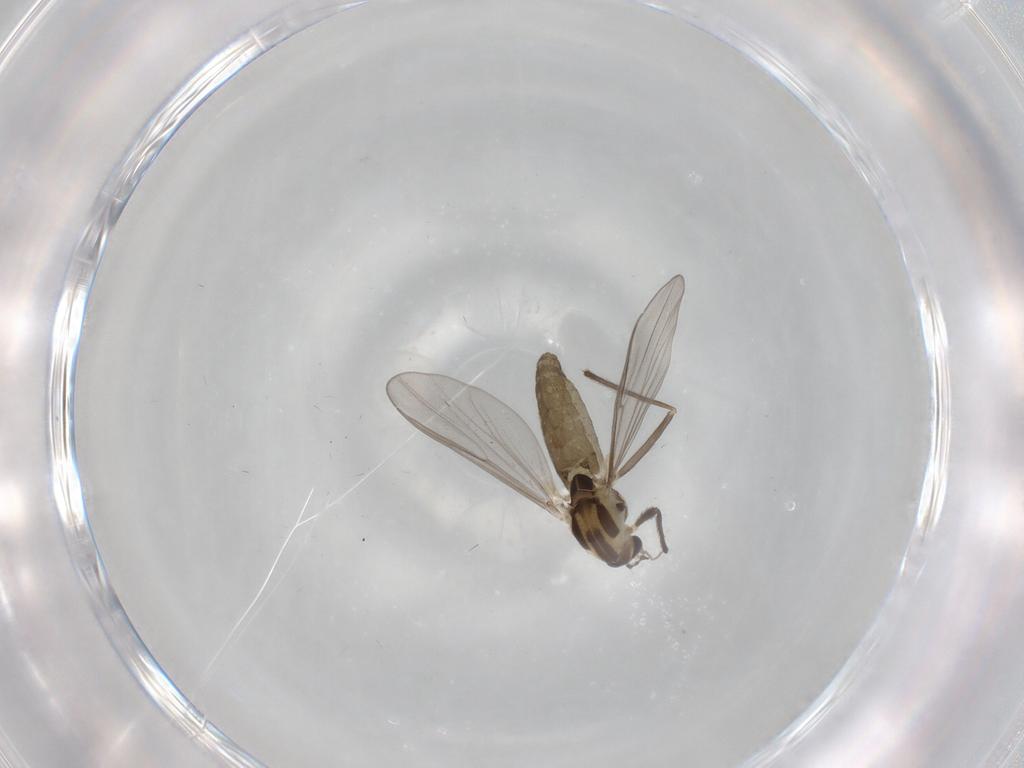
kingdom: Animalia
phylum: Arthropoda
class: Insecta
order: Diptera
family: Chironomidae
